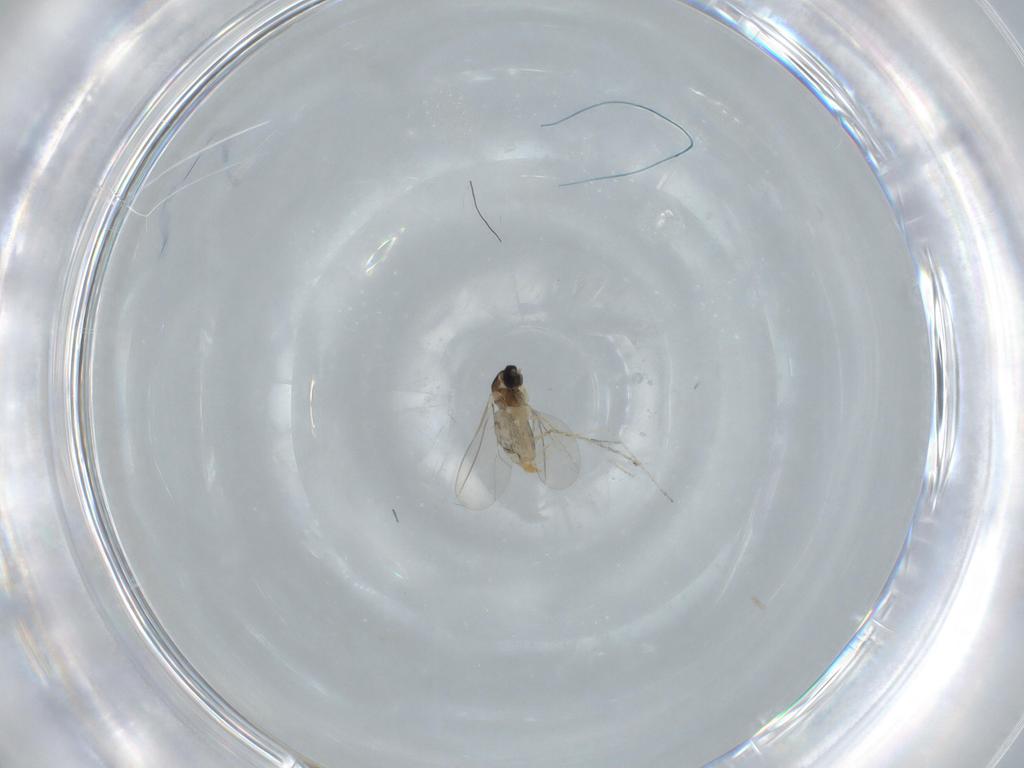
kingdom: Animalia
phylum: Arthropoda
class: Insecta
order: Diptera
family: Cecidomyiidae
